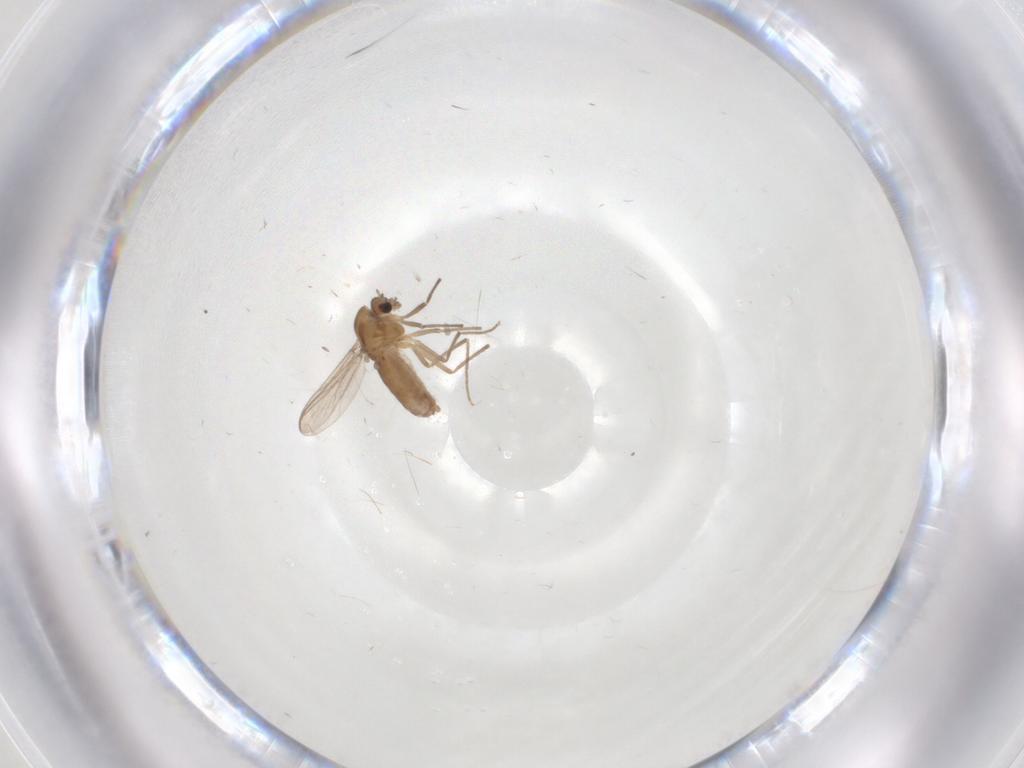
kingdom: Animalia
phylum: Arthropoda
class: Insecta
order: Diptera
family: Chironomidae
